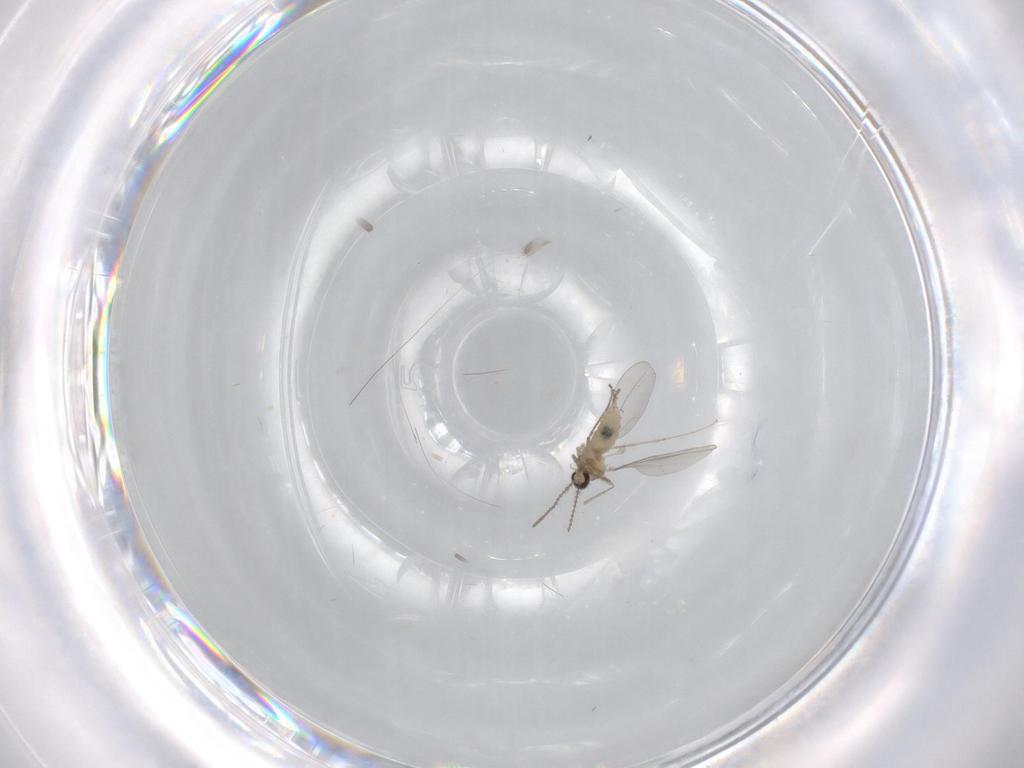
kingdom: Animalia
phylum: Arthropoda
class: Insecta
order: Diptera
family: Cecidomyiidae
